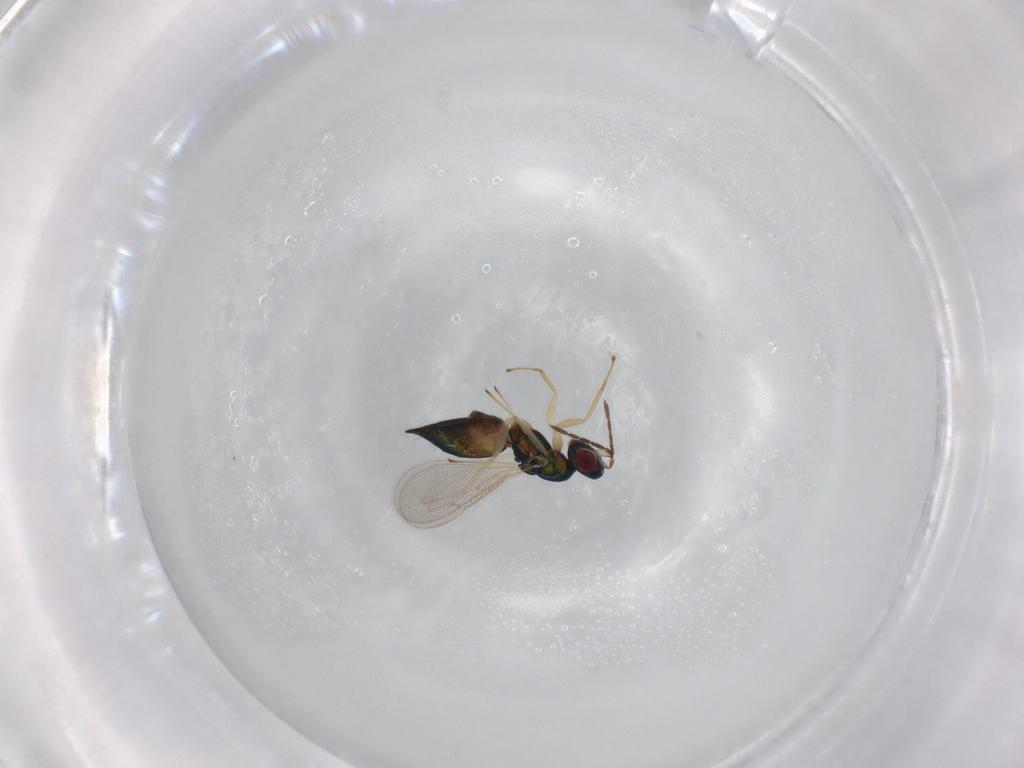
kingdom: Animalia
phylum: Arthropoda
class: Insecta
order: Hymenoptera
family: Eulophidae
